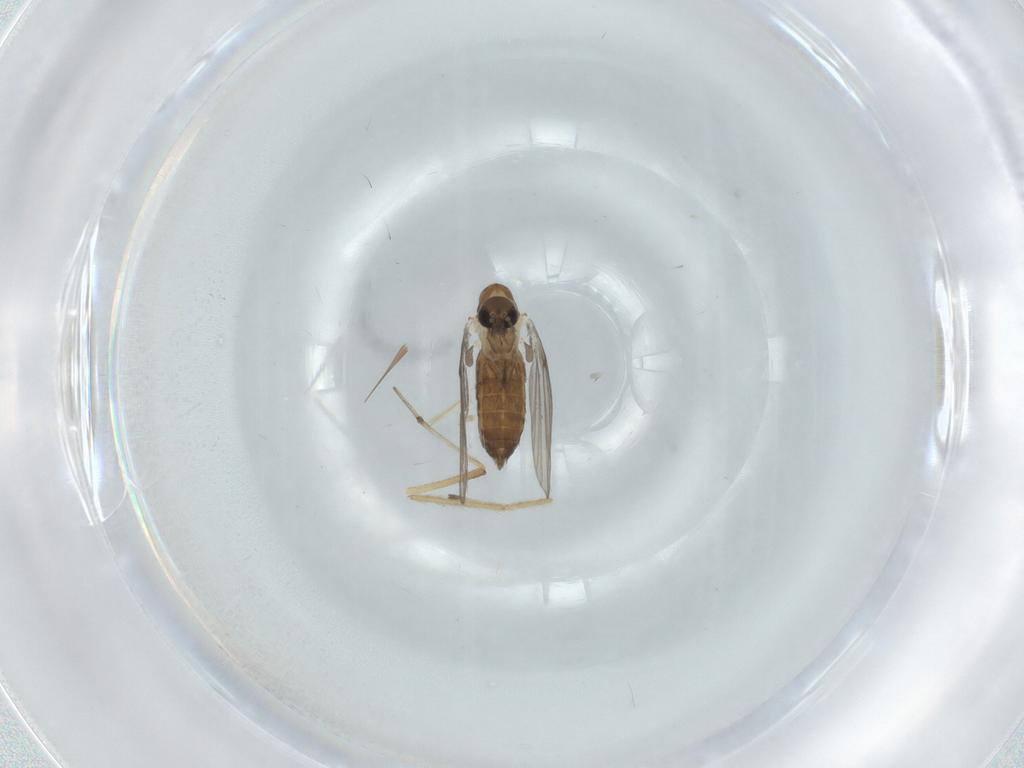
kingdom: Animalia
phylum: Arthropoda
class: Insecta
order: Diptera
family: Psychodidae
